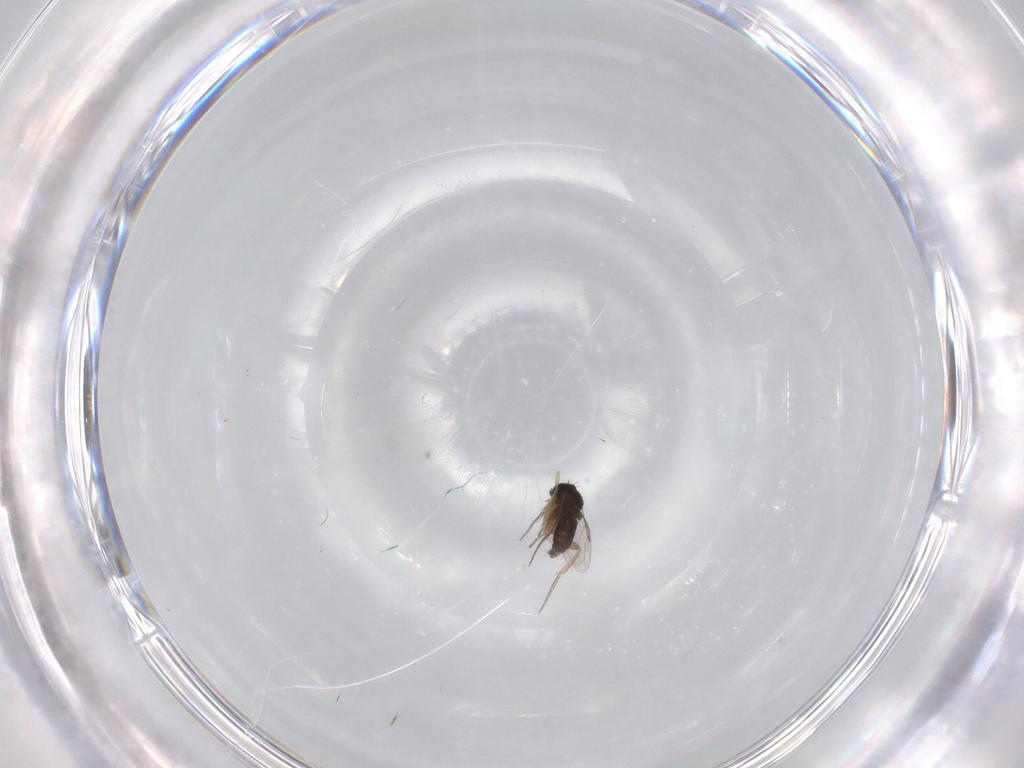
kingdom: Animalia
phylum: Arthropoda
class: Insecta
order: Diptera
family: Phoridae
